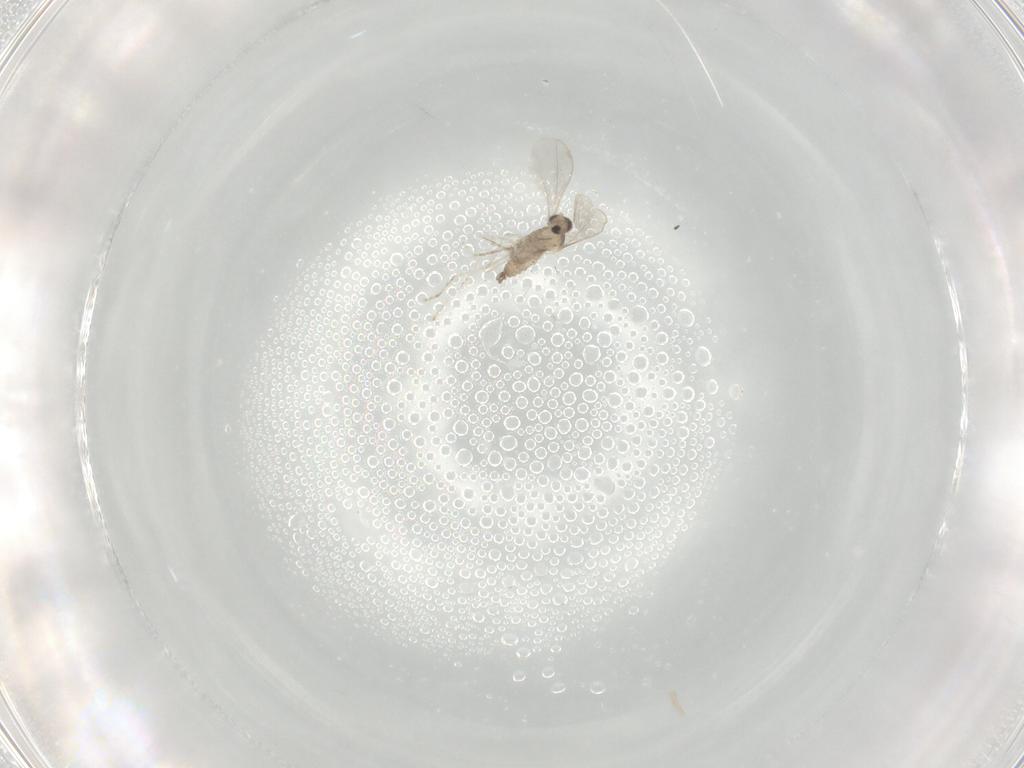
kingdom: Animalia
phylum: Arthropoda
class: Insecta
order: Diptera
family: Cecidomyiidae
